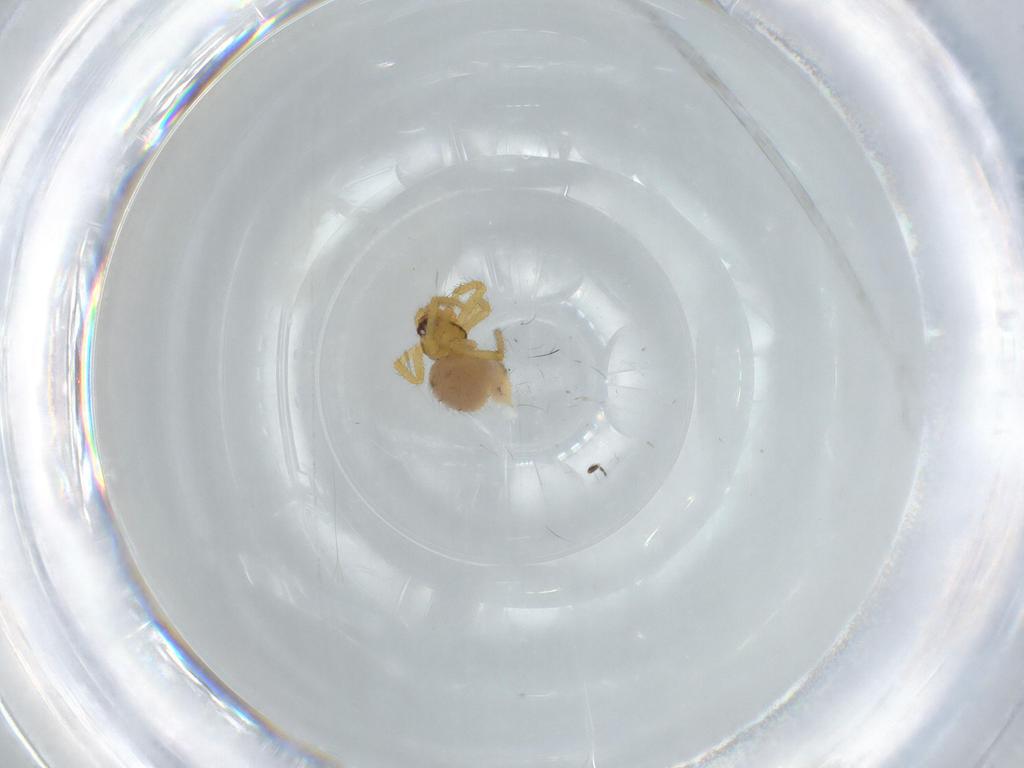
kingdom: Animalia
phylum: Arthropoda
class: Arachnida
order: Araneae
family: Theridiidae
